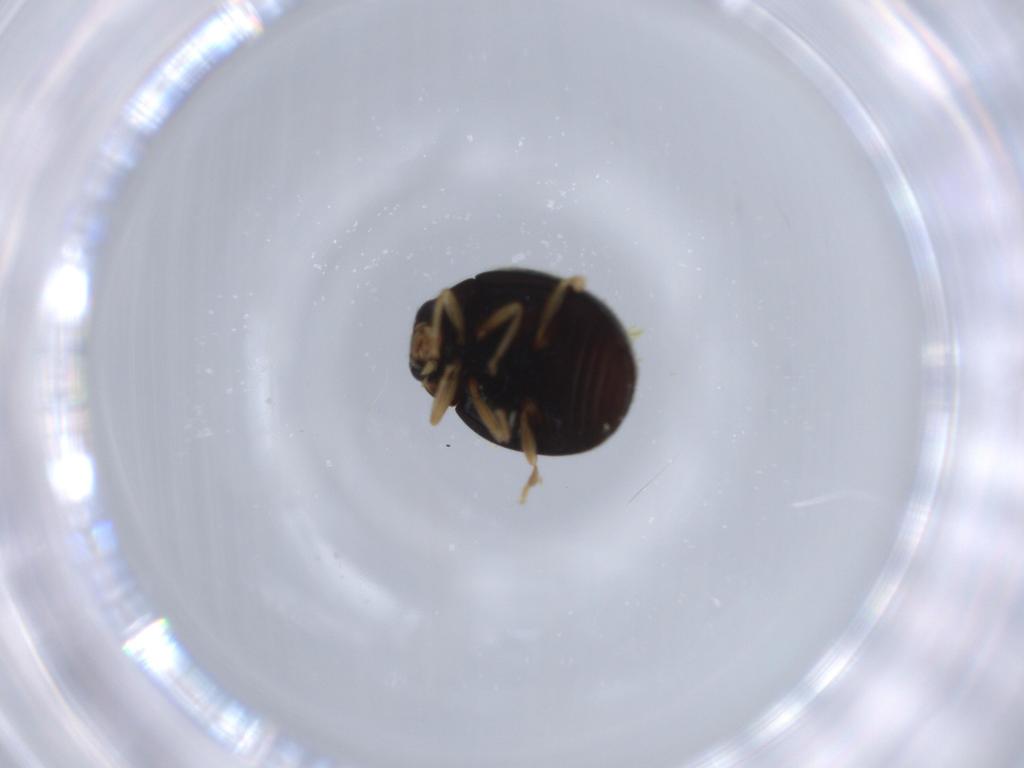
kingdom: Animalia
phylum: Arthropoda
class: Insecta
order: Coleoptera
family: Coccinellidae
